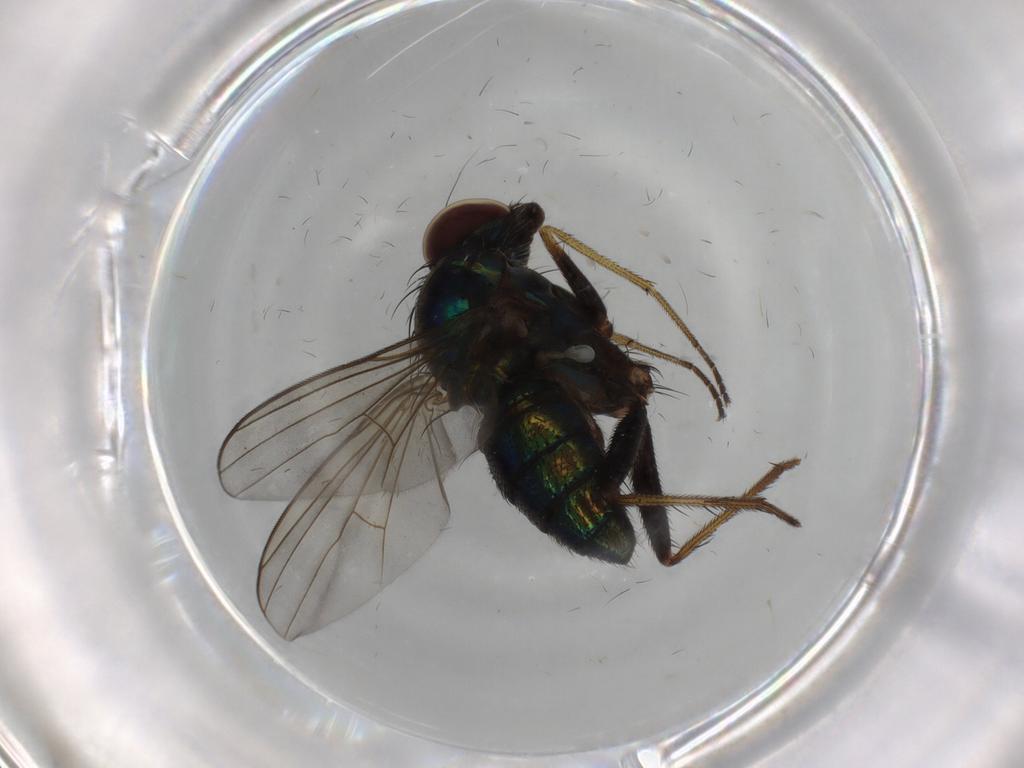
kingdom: Animalia
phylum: Arthropoda
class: Insecta
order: Diptera
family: Dolichopodidae
